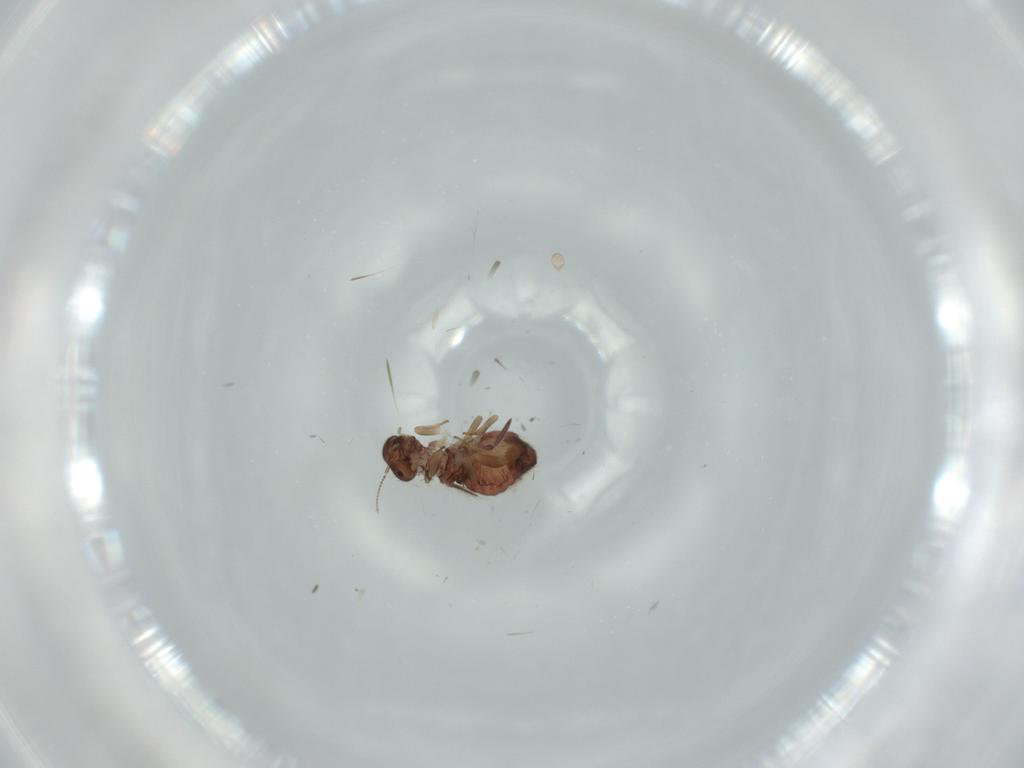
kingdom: Animalia
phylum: Arthropoda
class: Insecta
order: Psocodea
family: Archipsocidae
